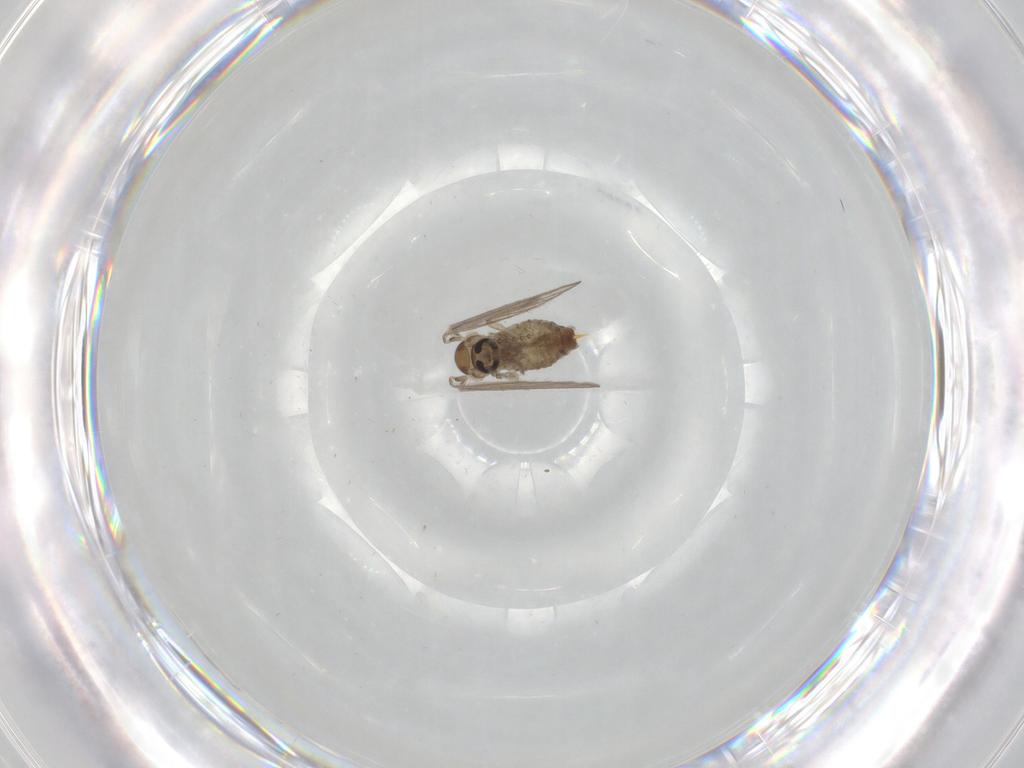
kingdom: Animalia
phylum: Arthropoda
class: Insecta
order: Diptera
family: Psychodidae
